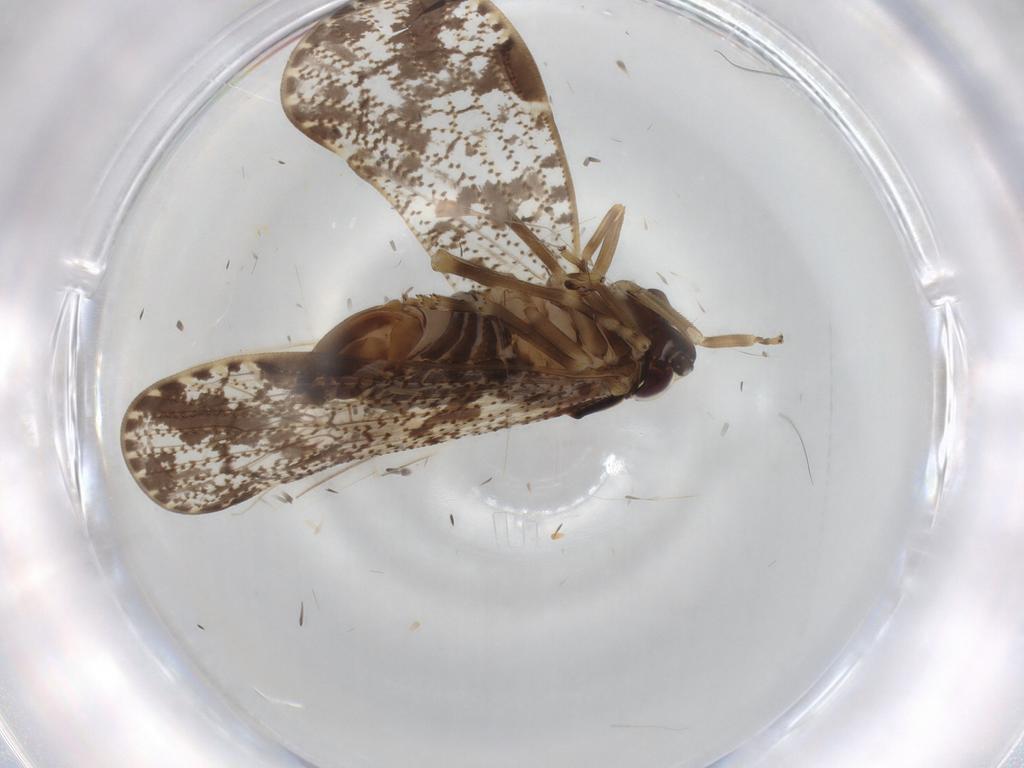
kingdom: Animalia
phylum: Arthropoda
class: Insecta
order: Hemiptera
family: Cixiidae
